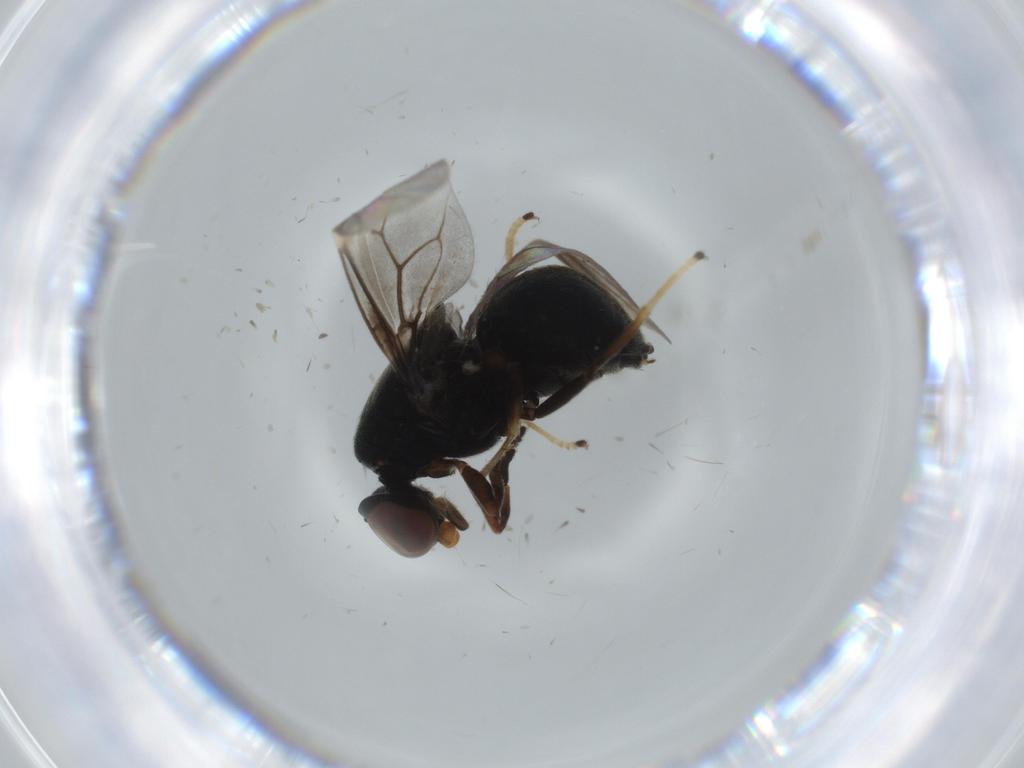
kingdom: Animalia
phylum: Arthropoda
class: Insecta
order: Diptera
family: Stratiomyidae
